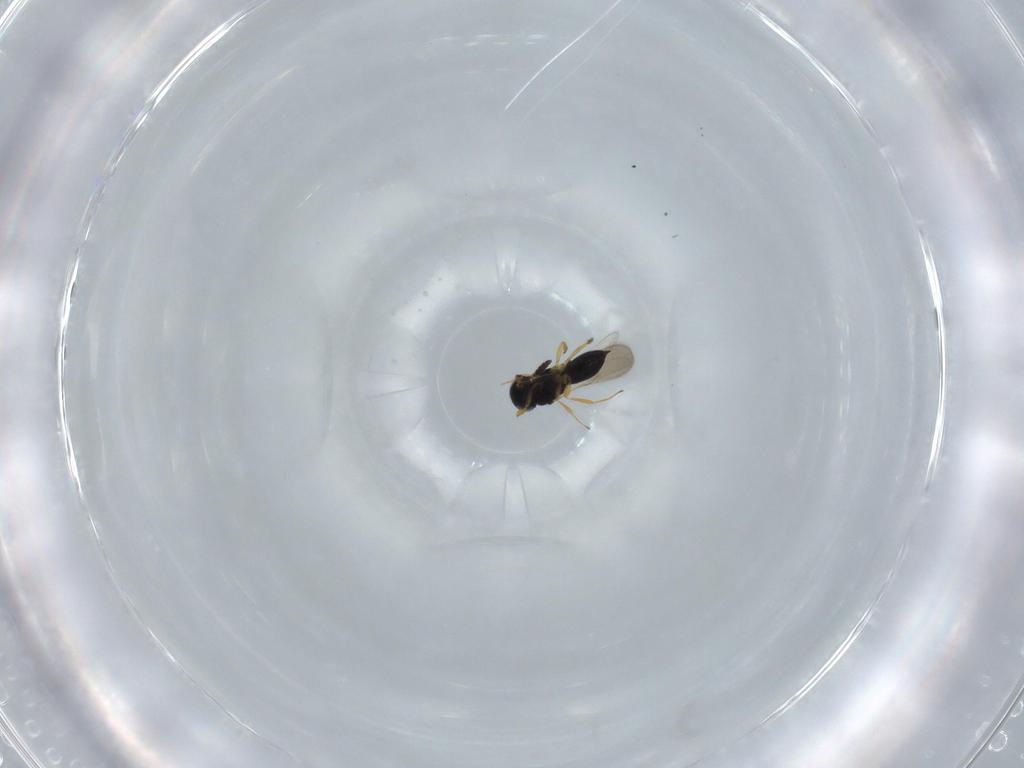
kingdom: Animalia
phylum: Arthropoda
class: Insecta
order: Hymenoptera
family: Scelionidae
